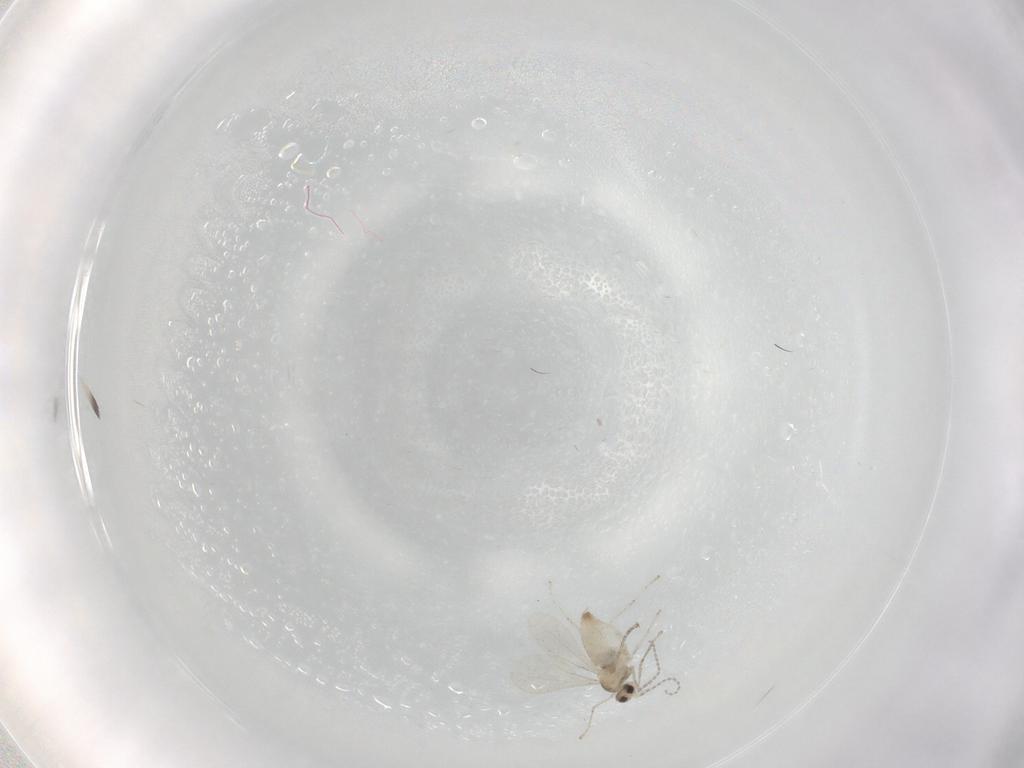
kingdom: Animalia
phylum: Arthropoda
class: Insecta
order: Diptera
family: Cecidomyiidae
